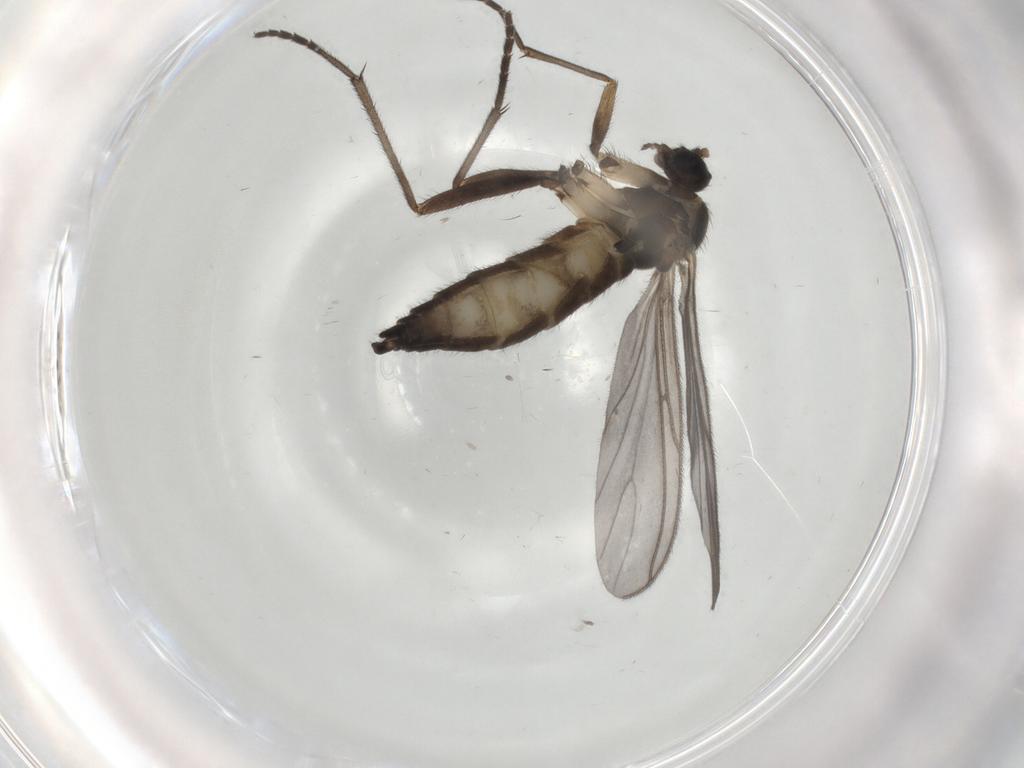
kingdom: Animalia
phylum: Arthropoda
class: Insecta
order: Diptera
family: Sciaridae
